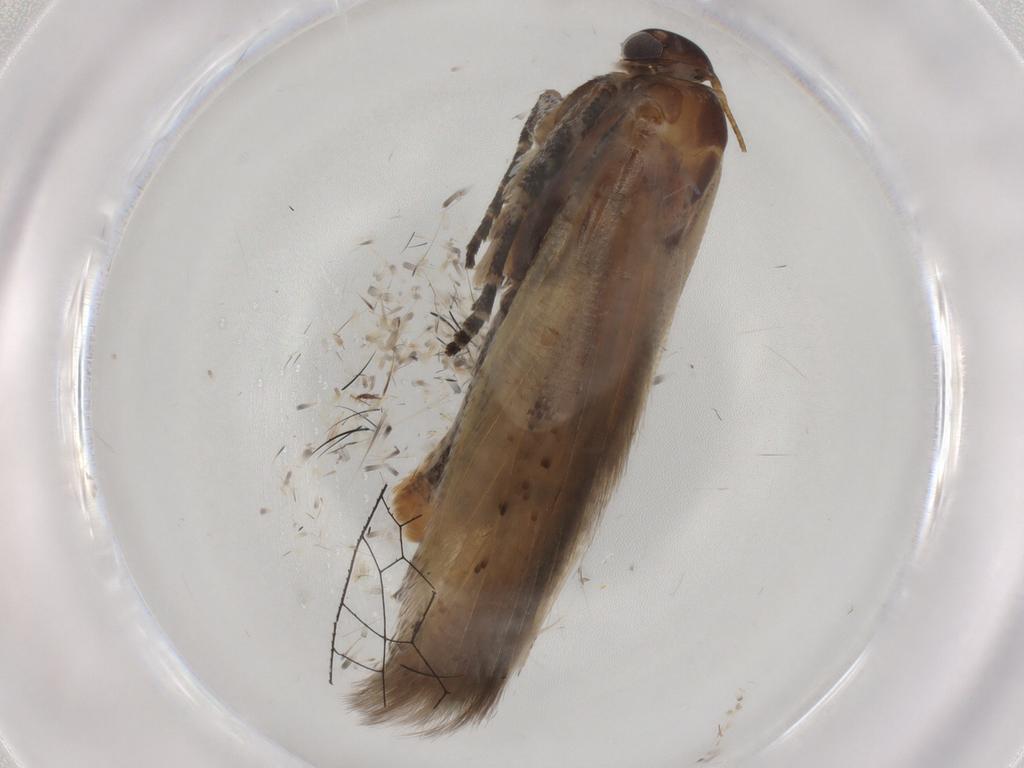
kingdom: Animalia
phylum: Arthropoda
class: Insecta
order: Lepidoptera
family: Gelechiidae
